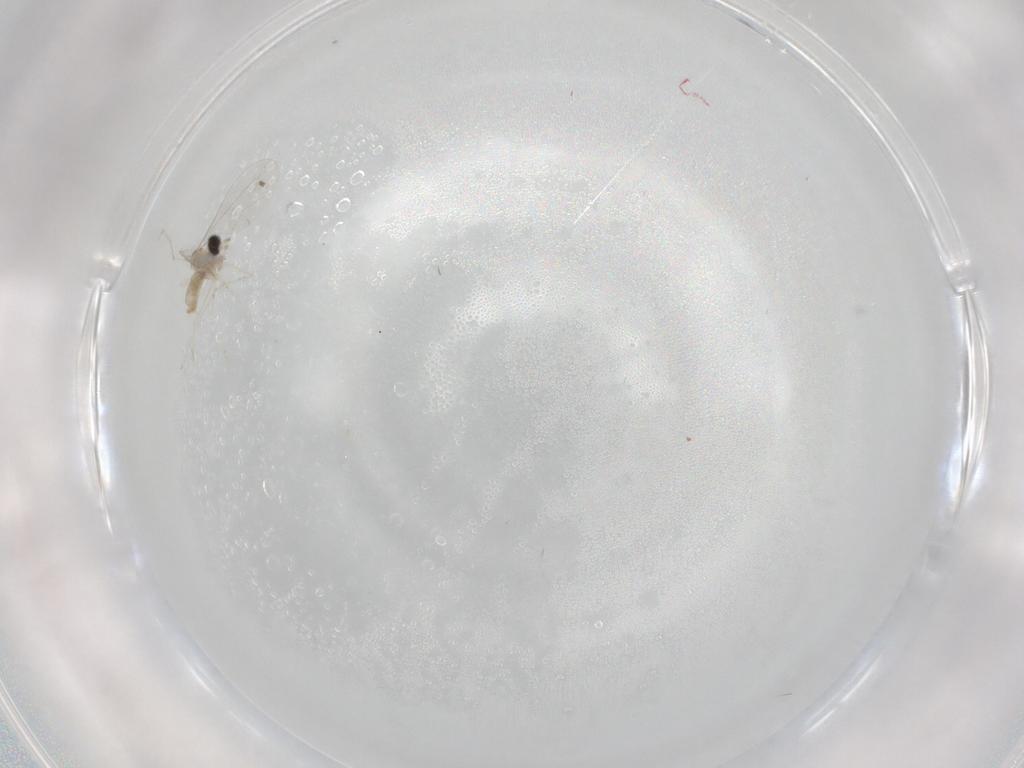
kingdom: Animalia
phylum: Arthropoda
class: Insecta
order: Diptera
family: Cecidomyiidae
